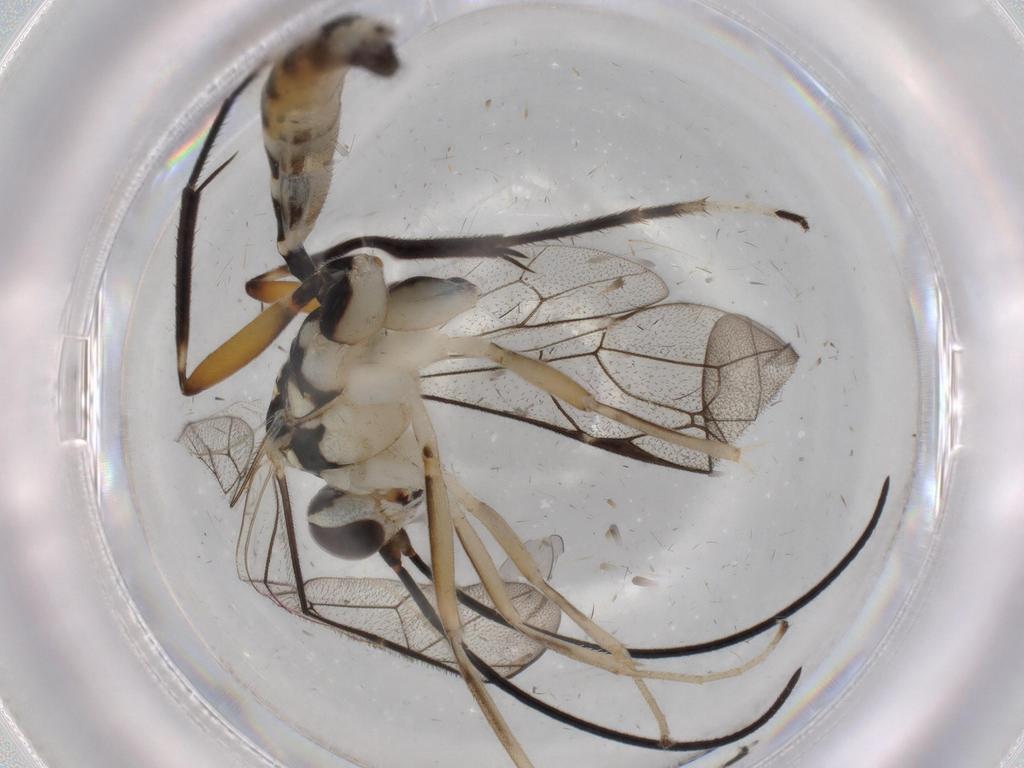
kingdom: Animalia
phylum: Arthropoda
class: Insecta
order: Hymenoptera
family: Formicidae
